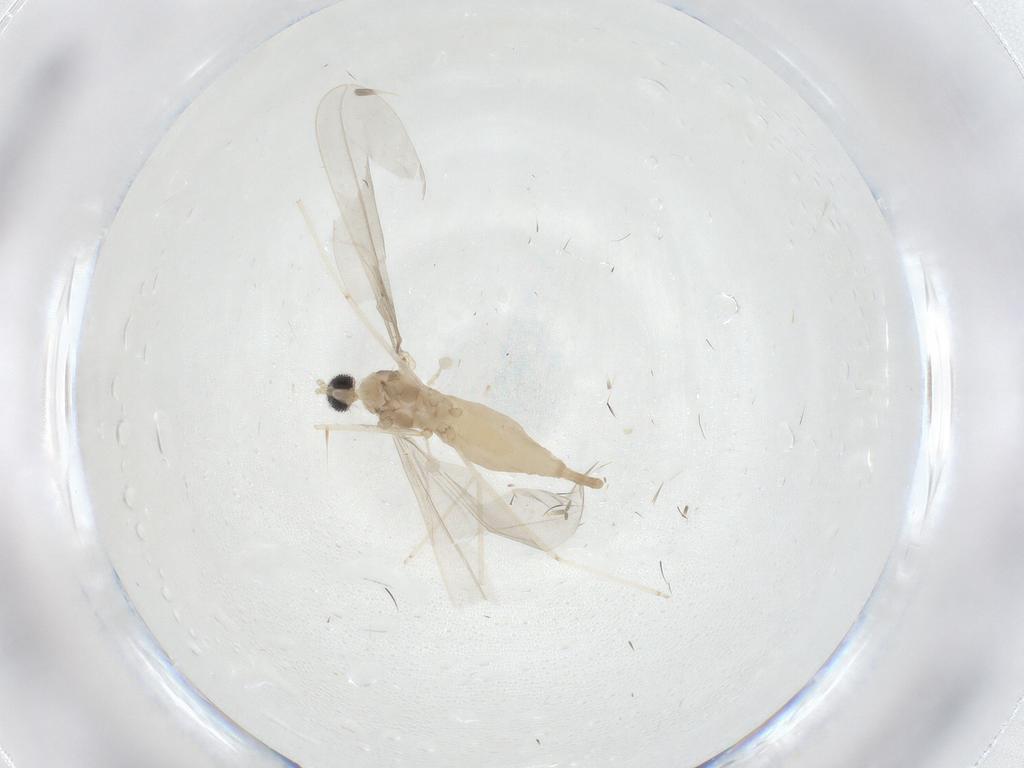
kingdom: Animalia
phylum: Arthropoda
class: Insecta
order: Diptera
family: Cecidomyiidae
